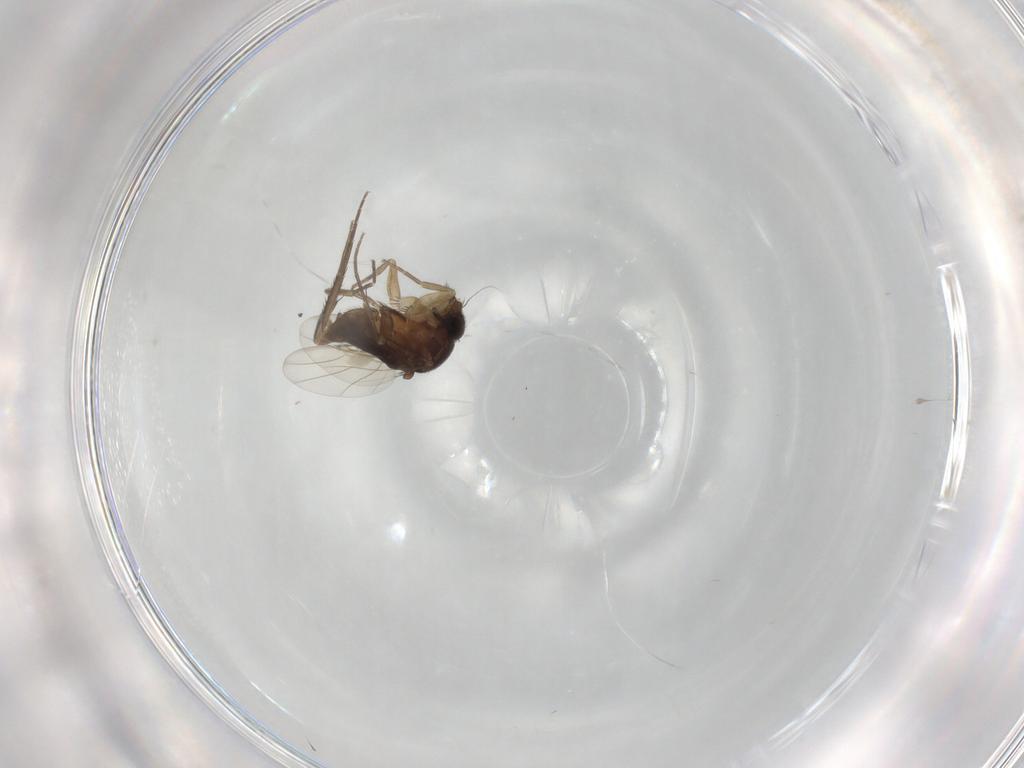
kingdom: Animalia
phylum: Arthropoda
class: Insecta
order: Diptera
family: Phoridae
